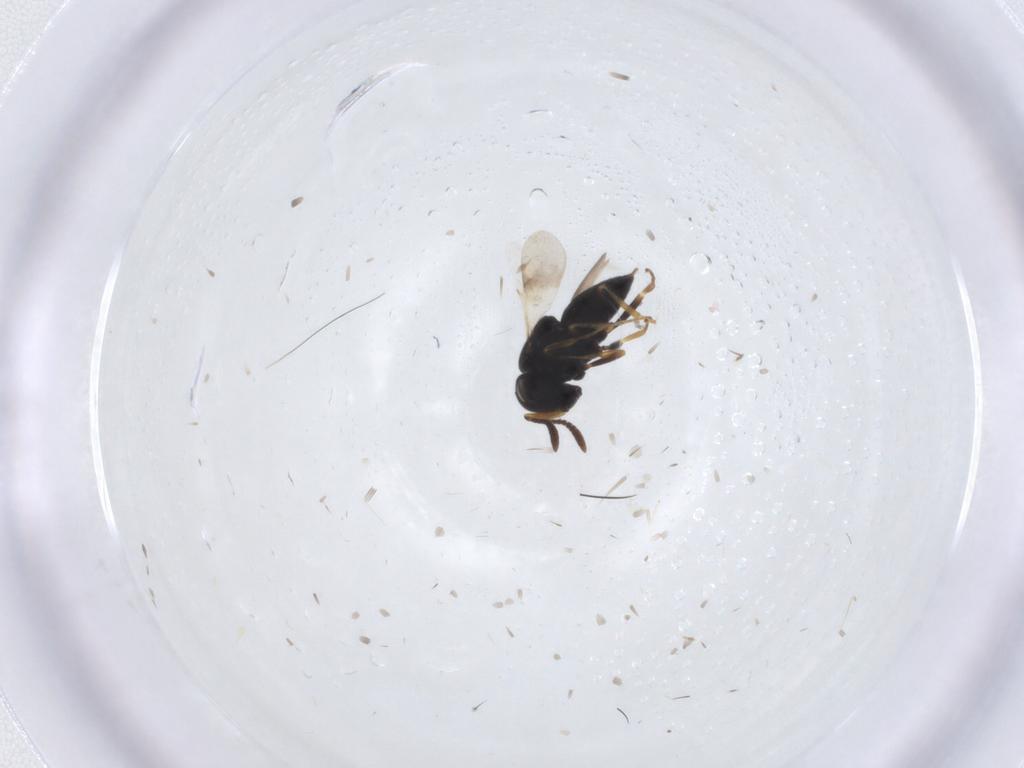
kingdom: Animalia
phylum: Arthropoda
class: Insecta
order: Hymenoptera
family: Scelionidae
